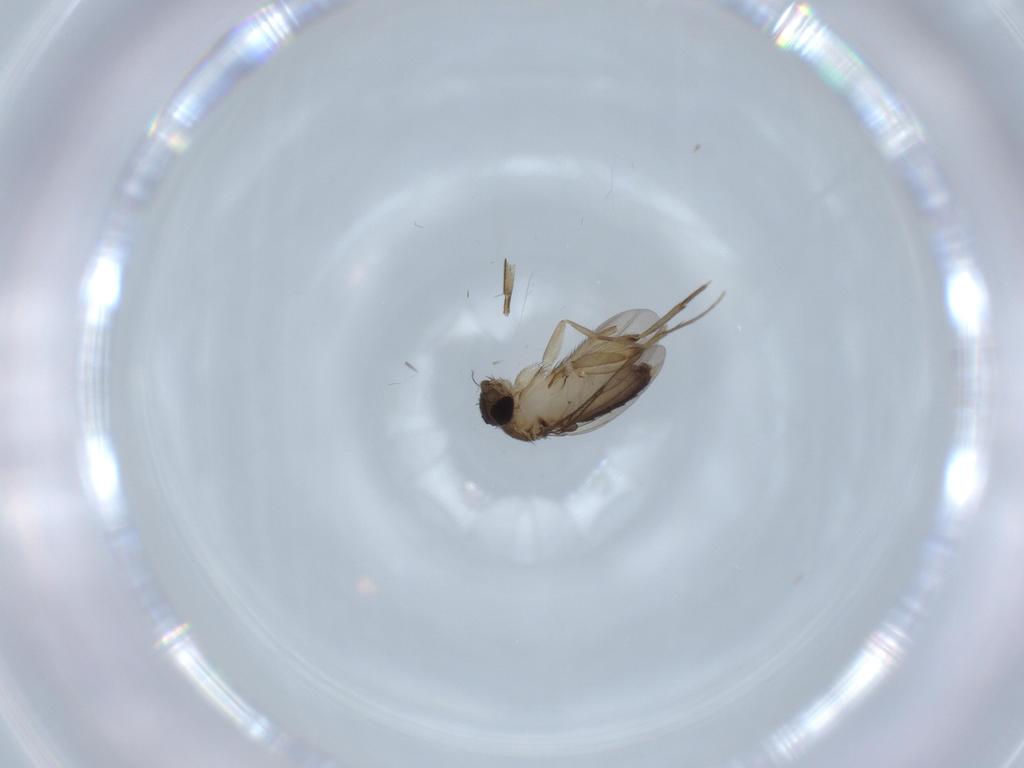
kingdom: Animalia
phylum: Arthropoda
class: Insecta
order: Diptera
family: Phoridae
